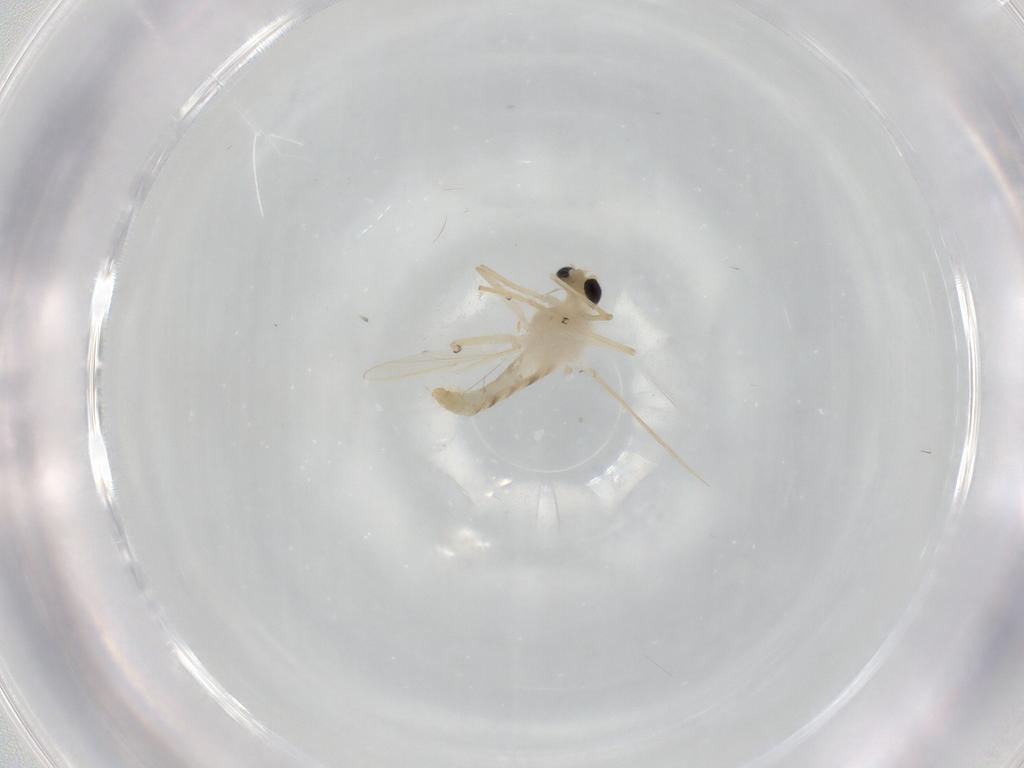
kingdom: Animalia
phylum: Arthropoda
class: Insecta
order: Diptera
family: Chironomidae
